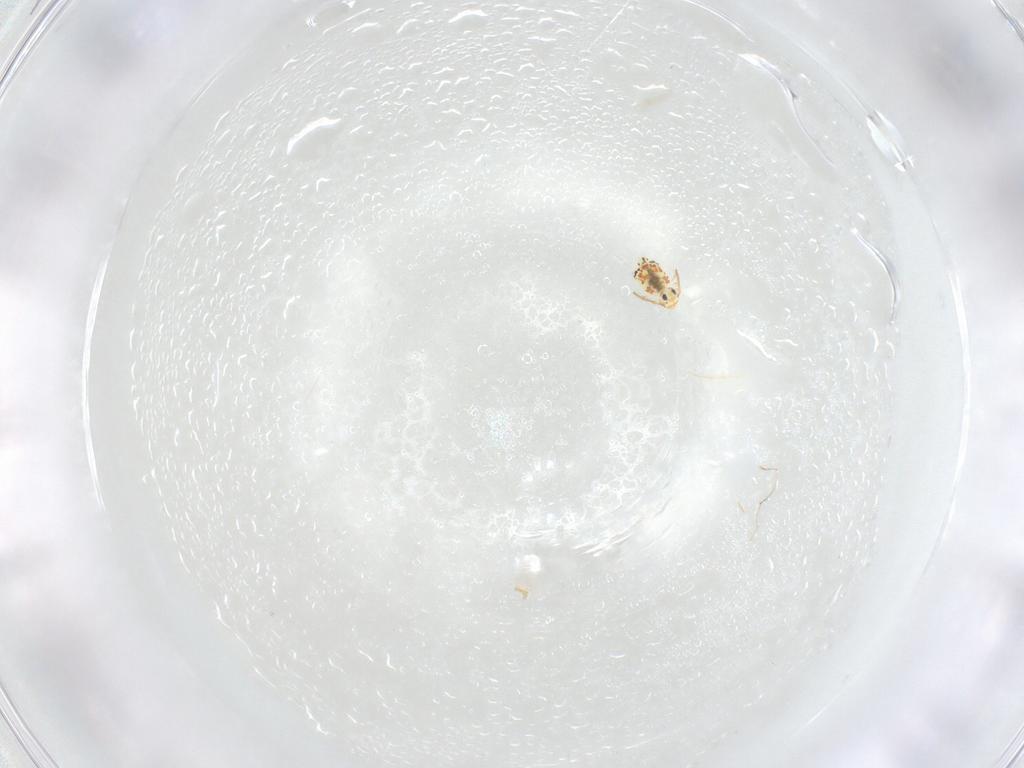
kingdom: Animalia
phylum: Arthropoda
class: Collembola
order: Symphypleona
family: Bourletiellidae
